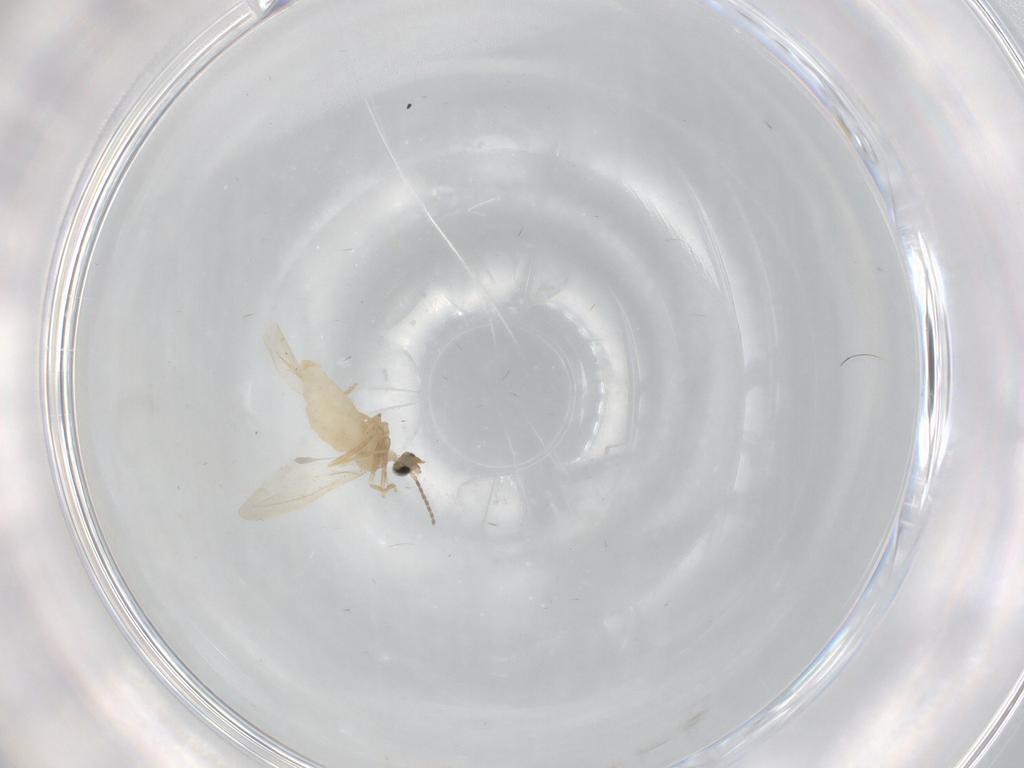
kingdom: Animalia
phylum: Arthropoda
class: Insecta
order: Diptera
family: Cecidomyiidae
